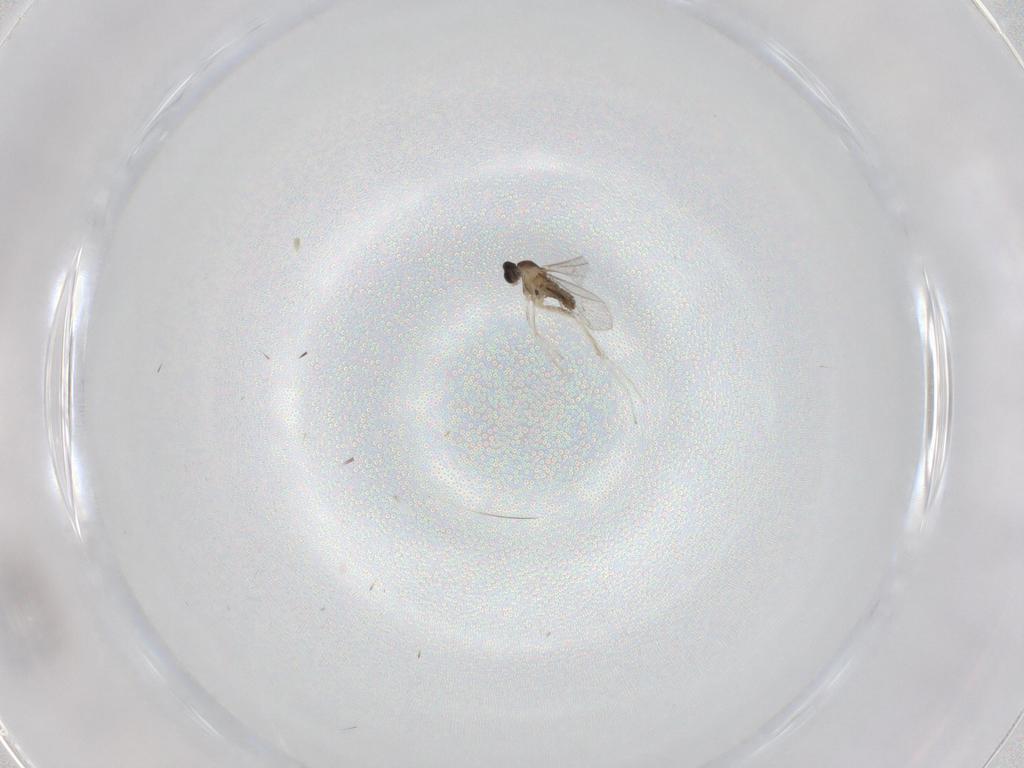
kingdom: Animalia
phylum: Arthropoda
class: Insecta
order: Diptera
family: Cecidomyiidae
